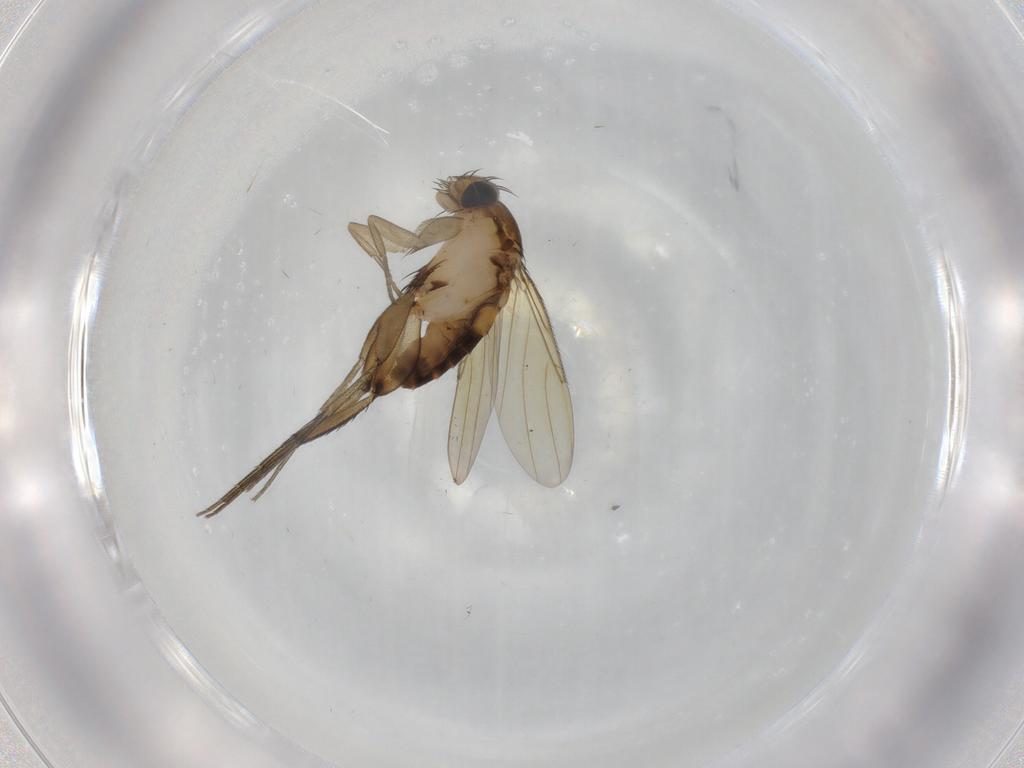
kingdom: Animalia
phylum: Arthropoda
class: Insecta
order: Diptera
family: Phoridae
